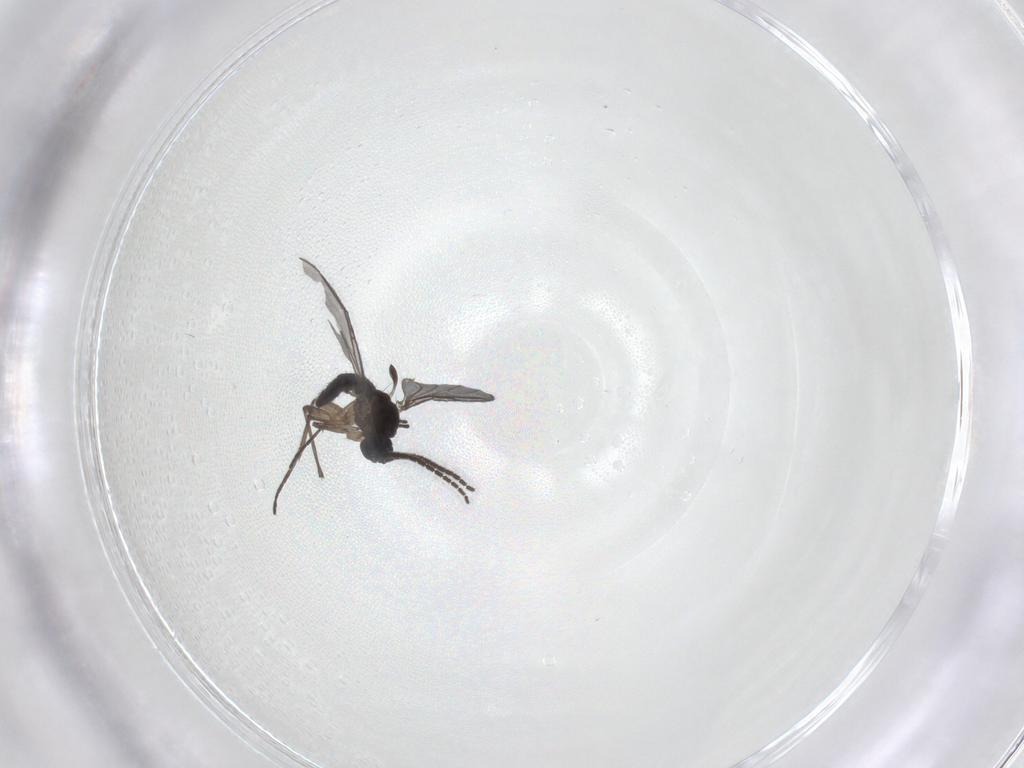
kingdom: Animalia
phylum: Arthropoda
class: Insecta
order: Diptera
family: Sciaridae
